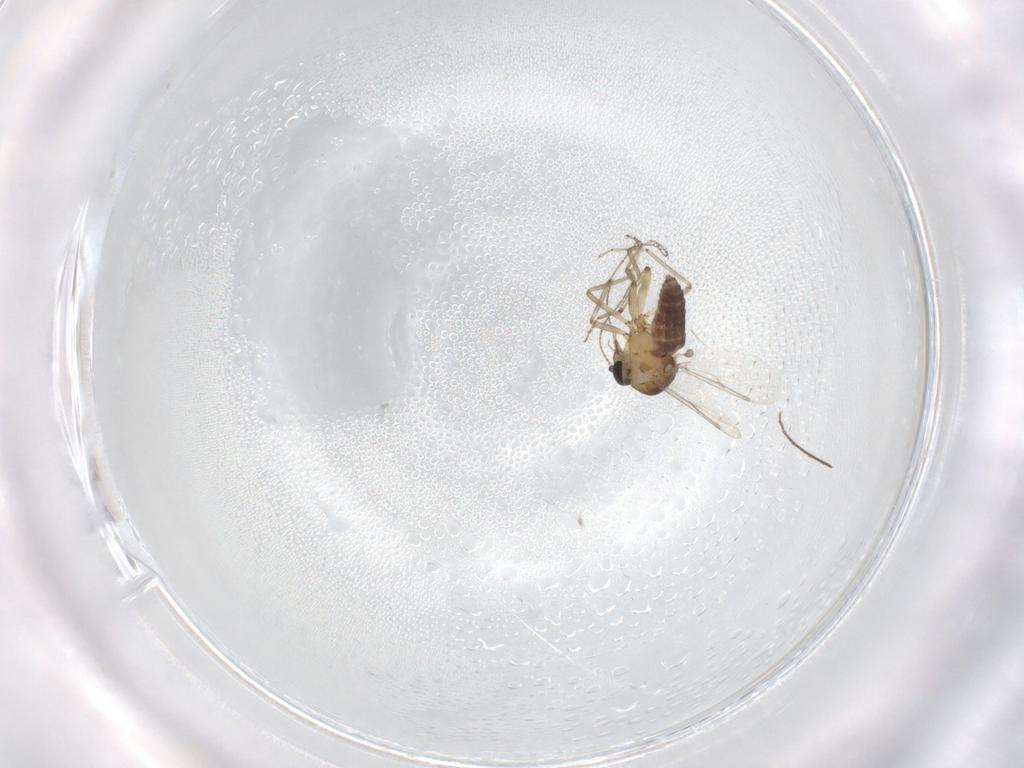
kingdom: Animalia
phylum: Arthropoda
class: Insecta
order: Diptera
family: Ceratopogonidae
